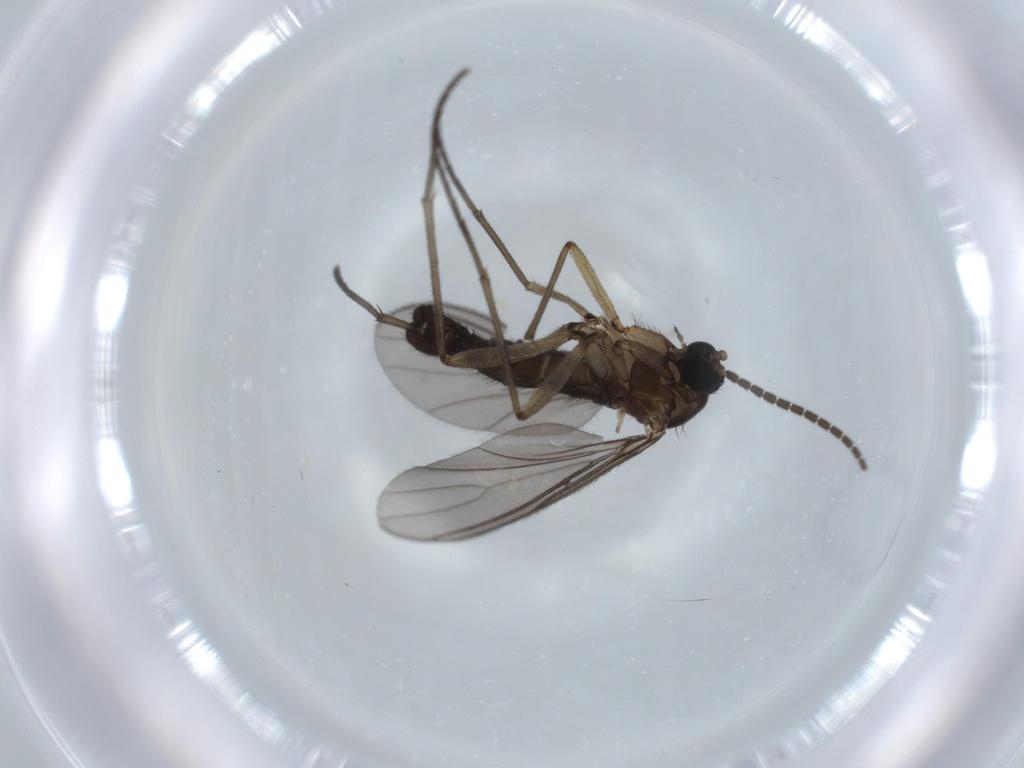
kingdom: Animalia
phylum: Arthropoda
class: Insecta
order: Diptera
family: Sciaridae
